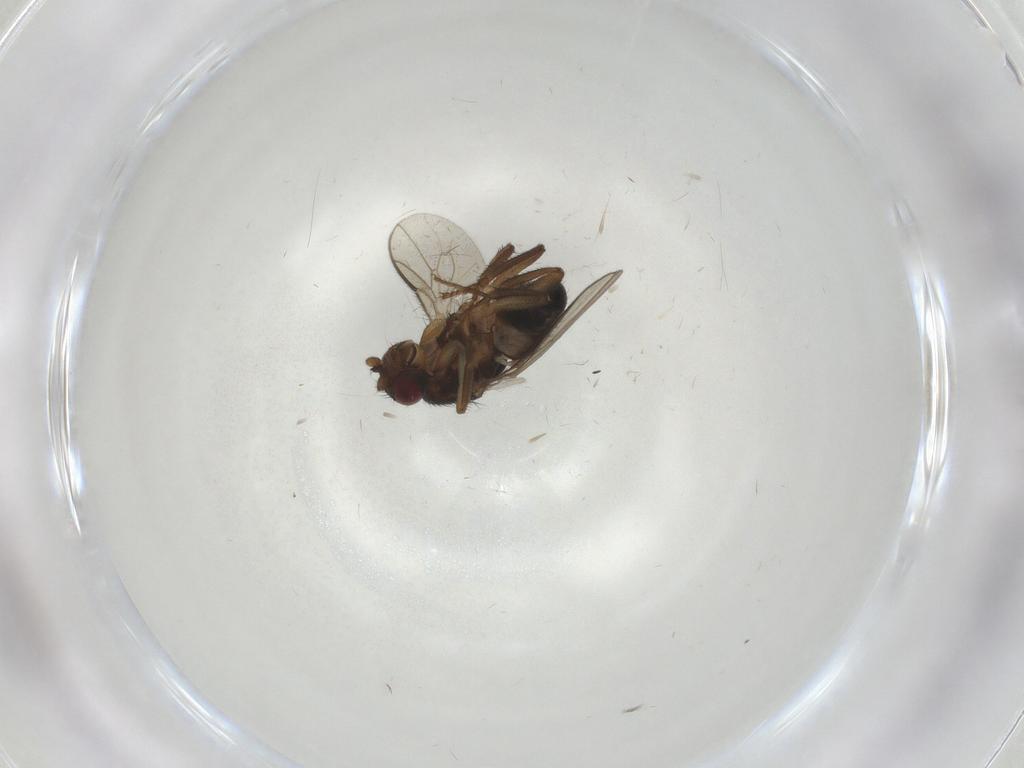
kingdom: Animalia
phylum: Arthropoda
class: Insecta
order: Diptera
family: Sphaeroceridae
